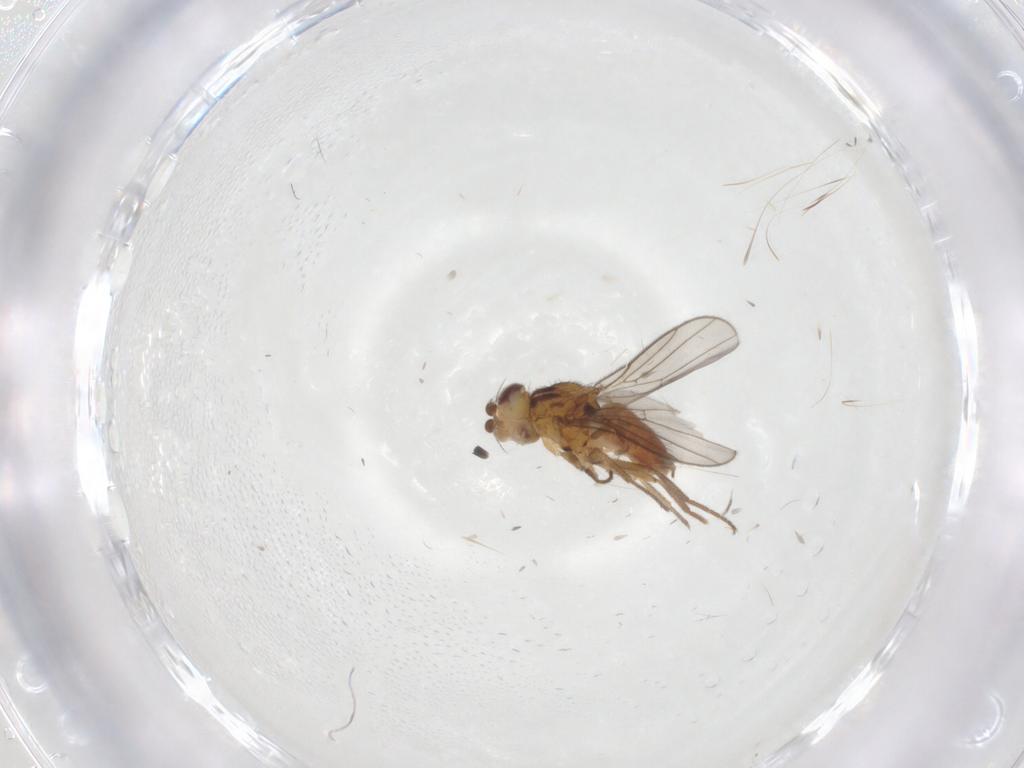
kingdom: Animalia
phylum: Arthropoda
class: Insecta
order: Diptera
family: Chloropidae
